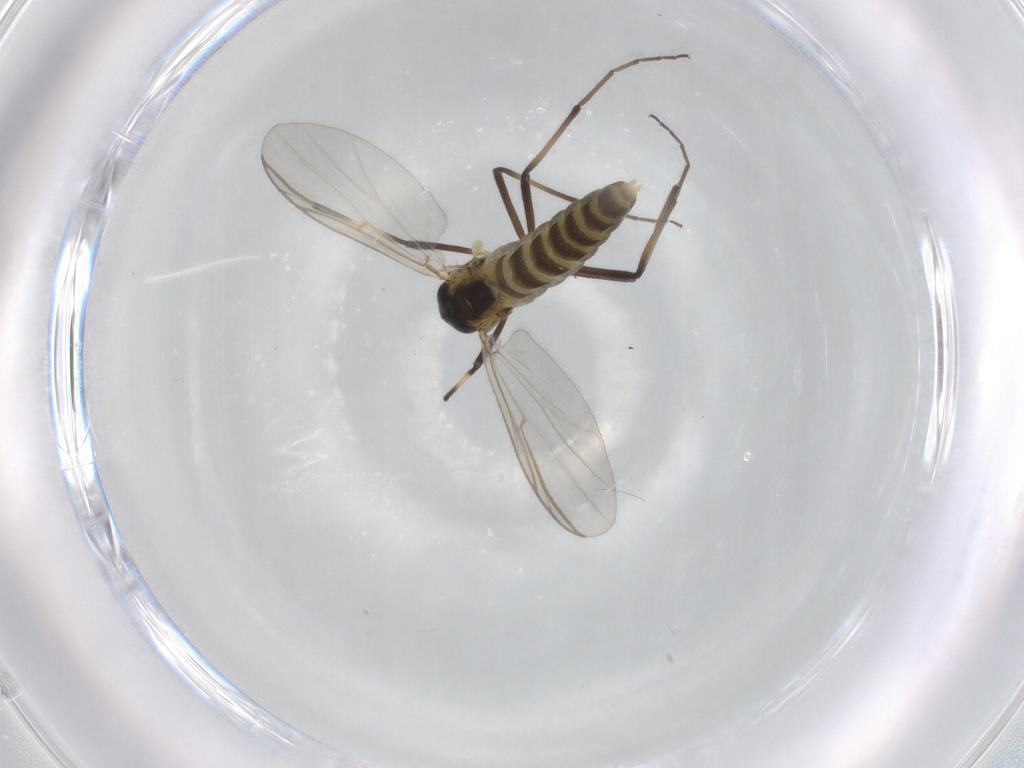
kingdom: Animalia
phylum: Arthropoda
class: Insecta
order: Diptera
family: Chironomidae
